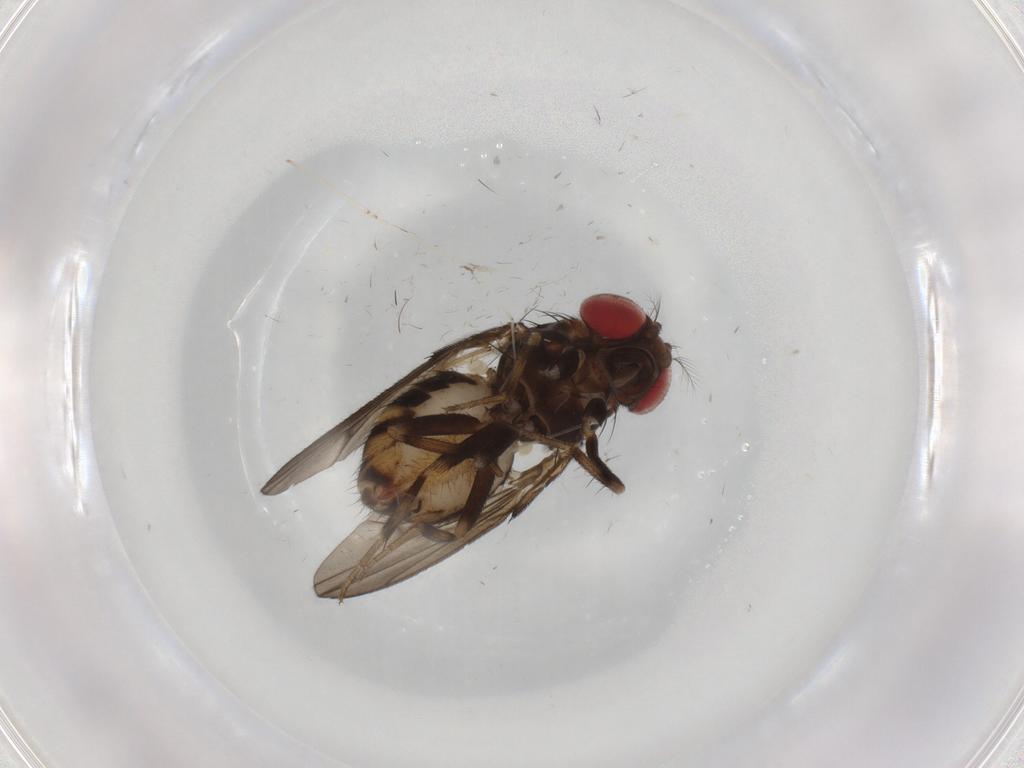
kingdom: Animalia
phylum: Arthropoda
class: Insecta
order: Diptera
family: Limoniidae
